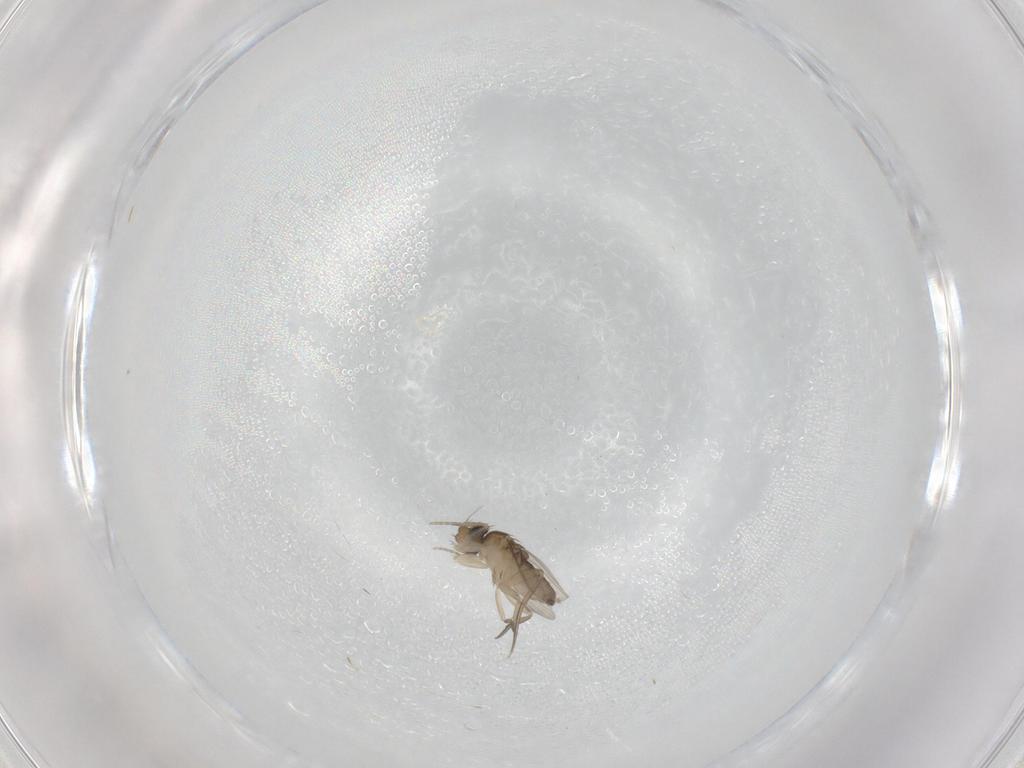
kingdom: Animalia
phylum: Arthropoda
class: Insecta
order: Diptera
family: Phoridae
